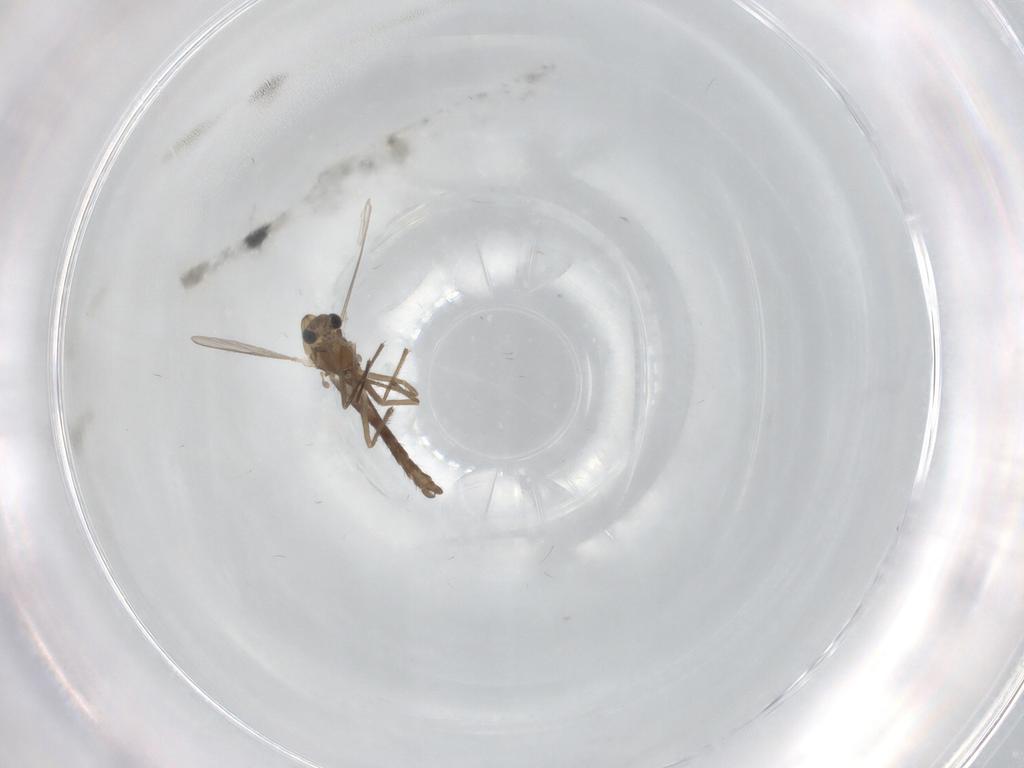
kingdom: Animalia
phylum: Arthropoda
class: Insecta
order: Diptera
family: Chironomidae
